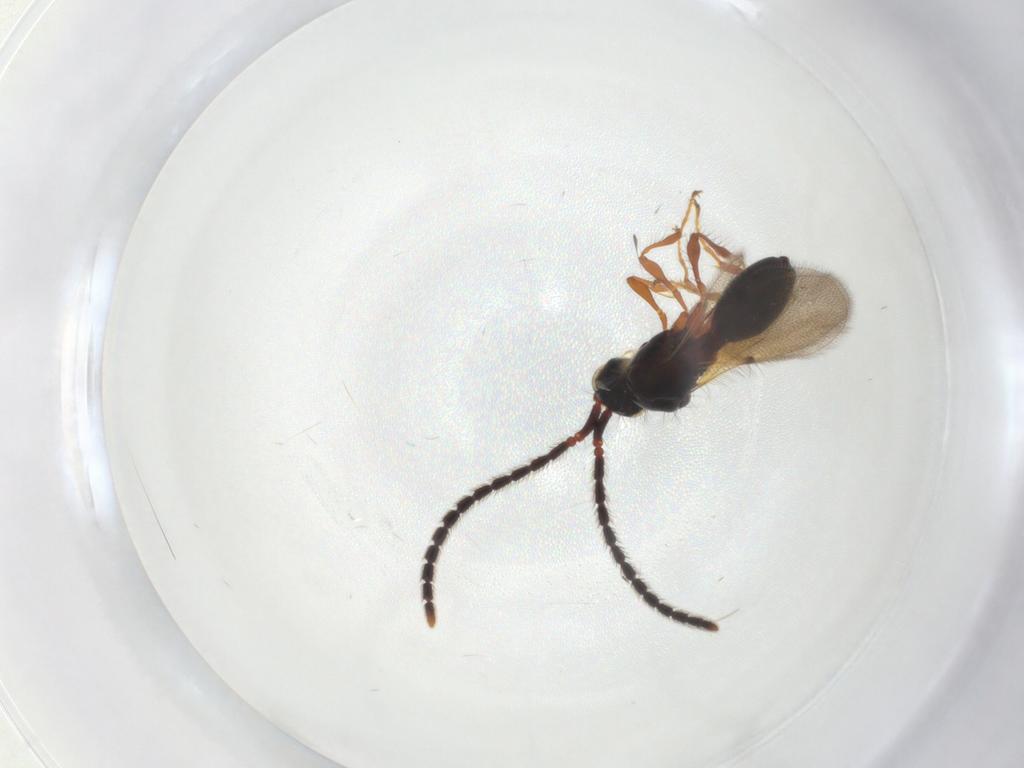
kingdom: Animalia
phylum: Arthropoda
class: Insecta
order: Hymenoptera
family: Diapriidae
